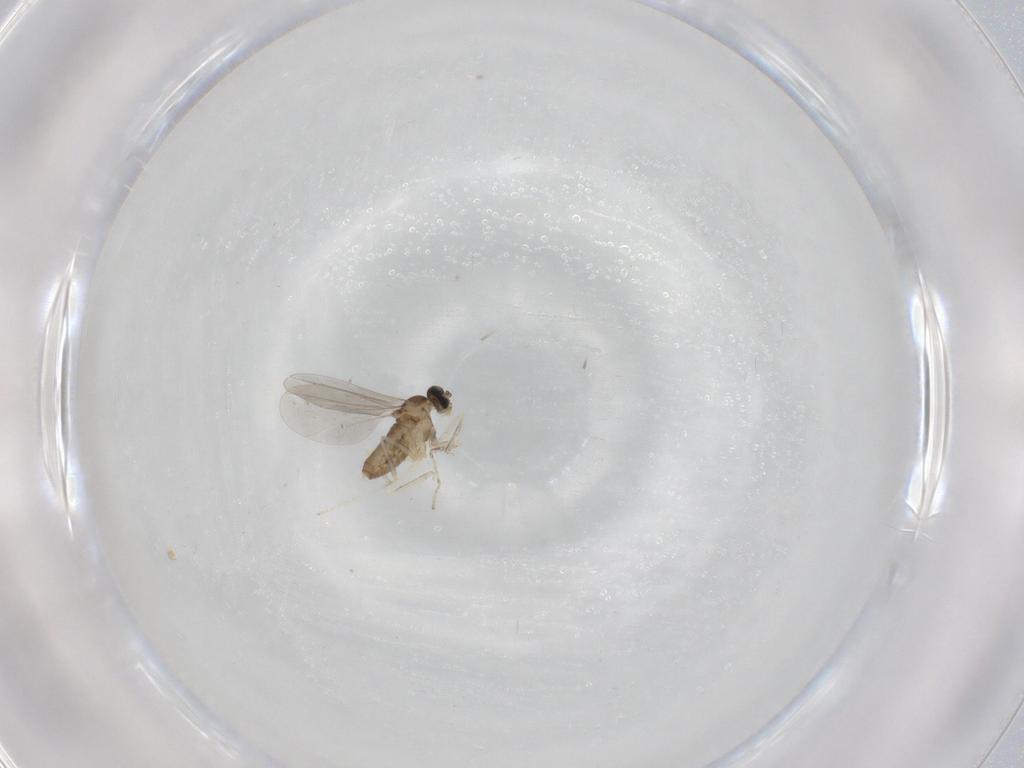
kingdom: Animalia
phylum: Arthropoda
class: Insecta
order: Diptera
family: Cecidomyiidae
